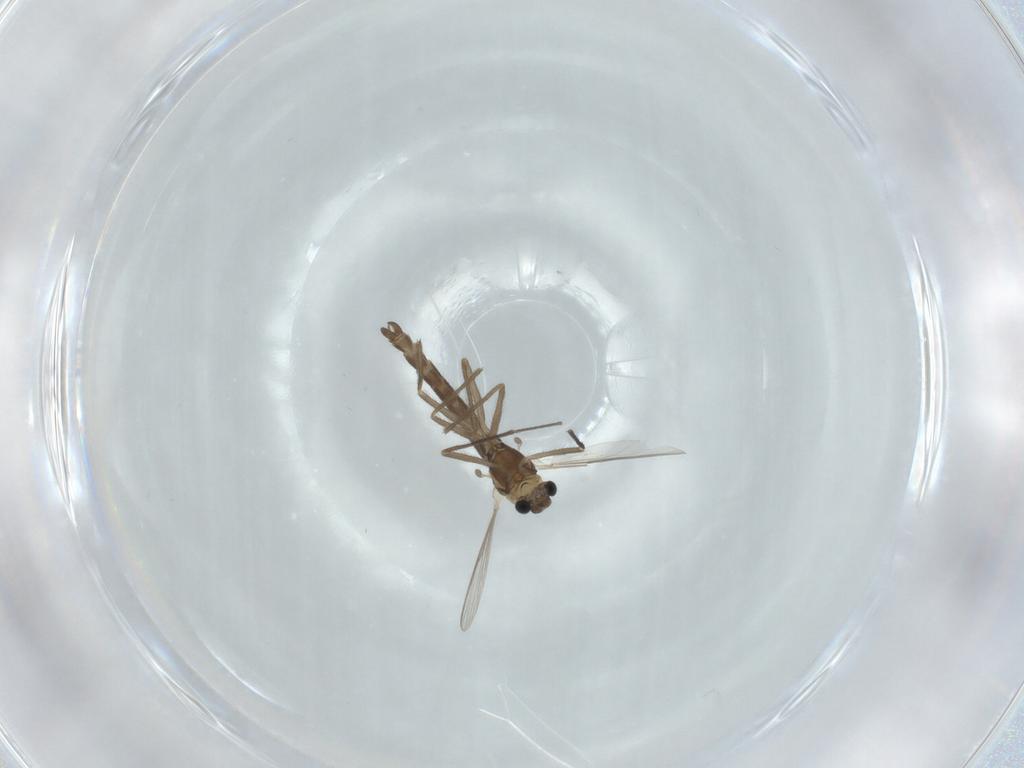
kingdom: Animalia
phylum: Arthropoda
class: Insecta
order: Diptera
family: Chironomidae
